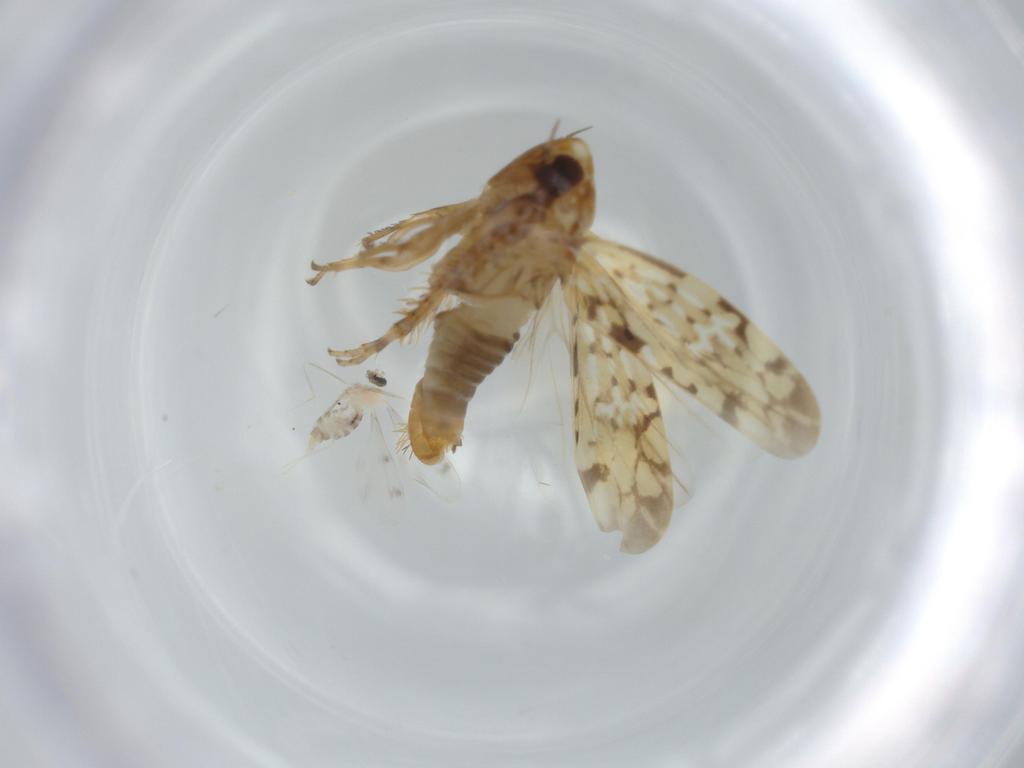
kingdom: Animalia
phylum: Arthropoda
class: Insecta
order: Hemiptera
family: Cicadellidae
